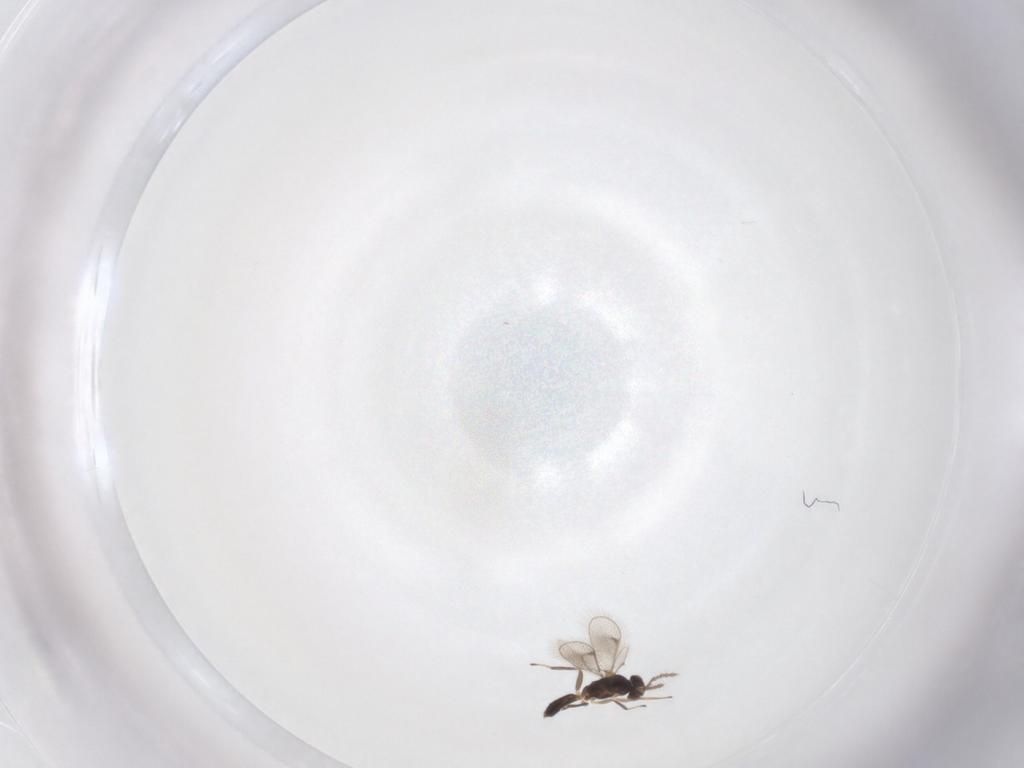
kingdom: Animalia
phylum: Arthropoda
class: Insecta
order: Hymenoptera
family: Eulophidae
